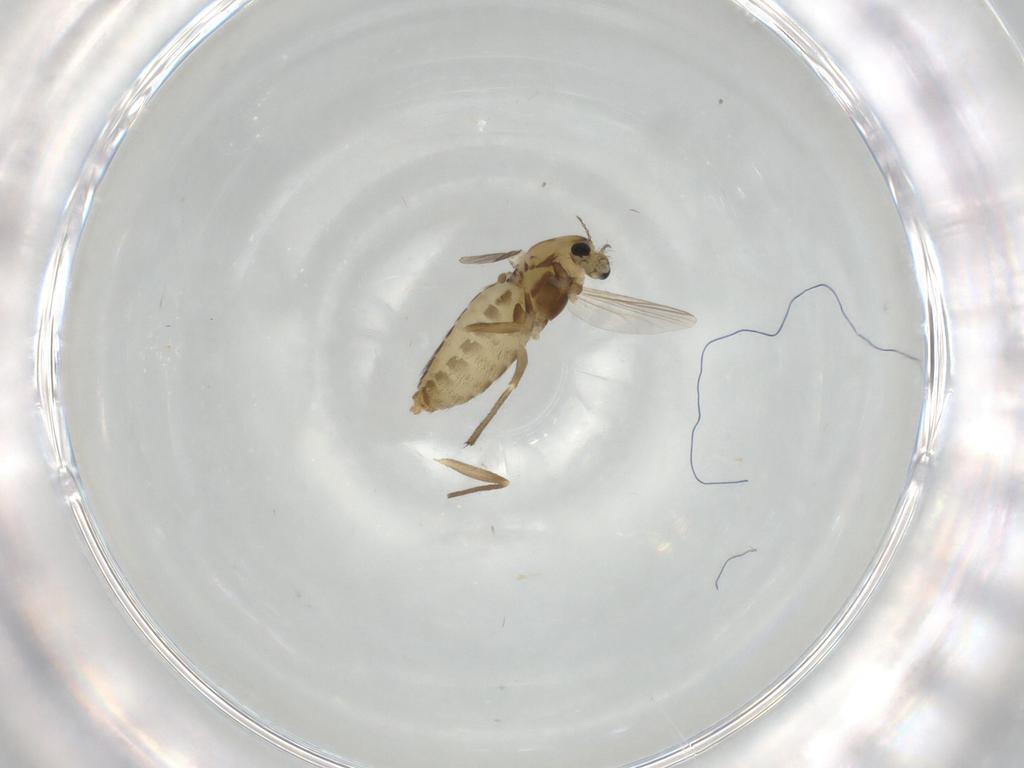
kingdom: Animalia
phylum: Arthropoda
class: Insecta
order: Diptera
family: Chironomidae
